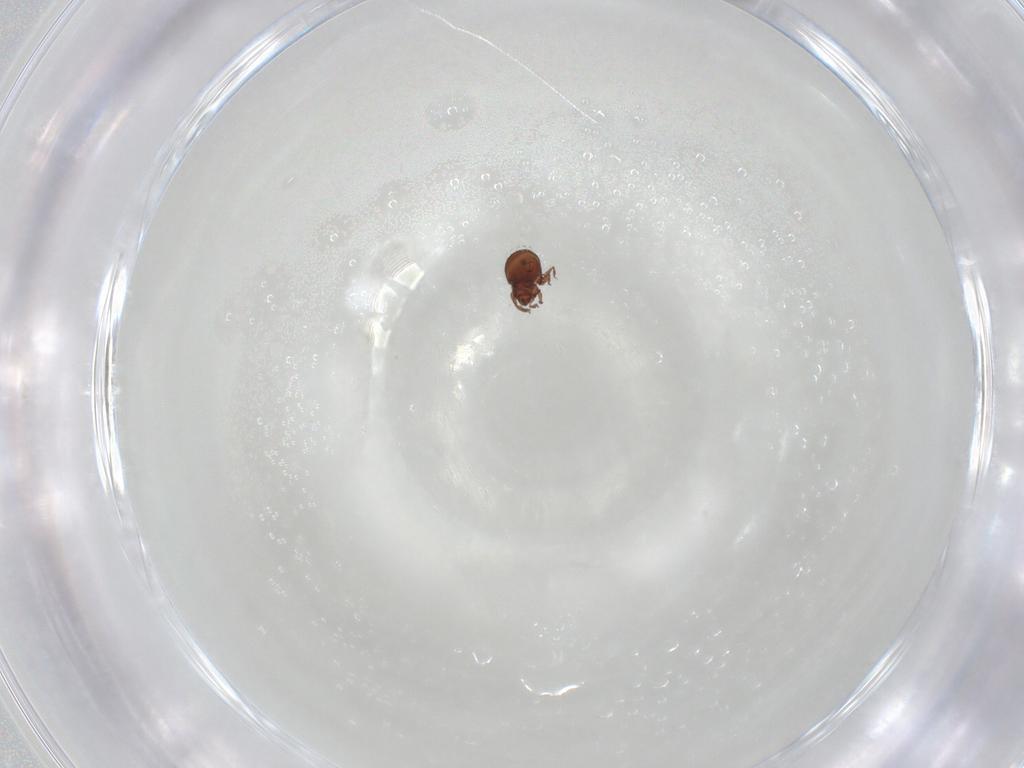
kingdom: Animalia
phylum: Arthropoda
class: Arachnida
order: Sarcoptiformes
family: Scheloribatidae
